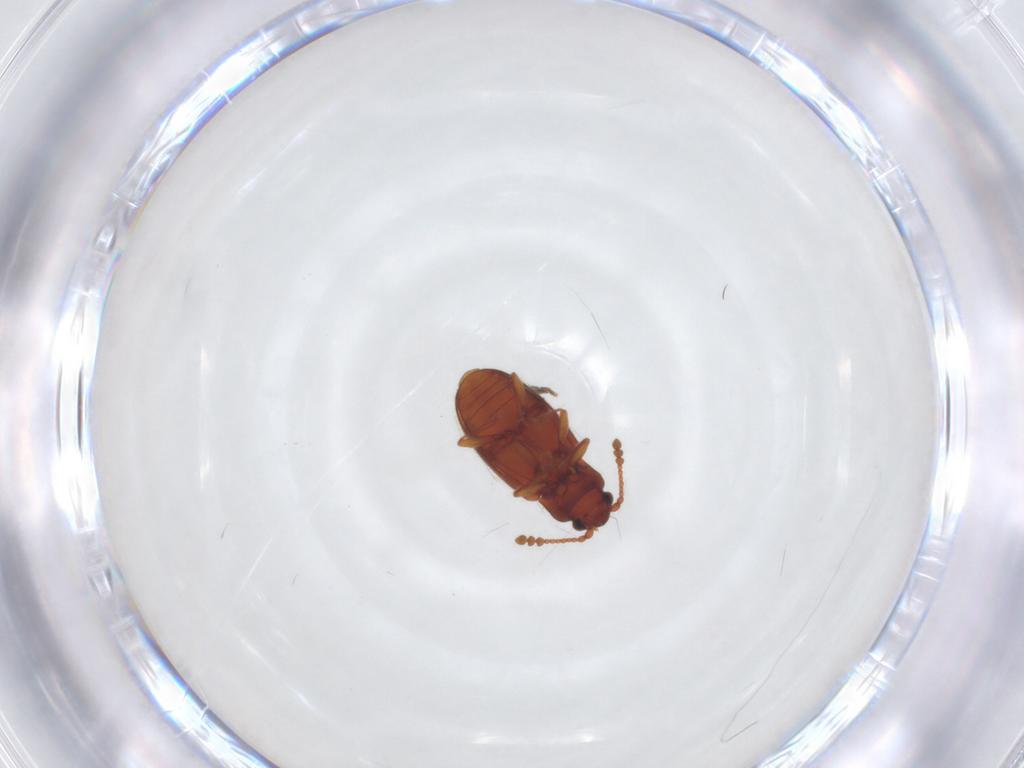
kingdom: Animalia
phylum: Arthropoda
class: Insecta
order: Coleoptera
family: Cryptophagidae
